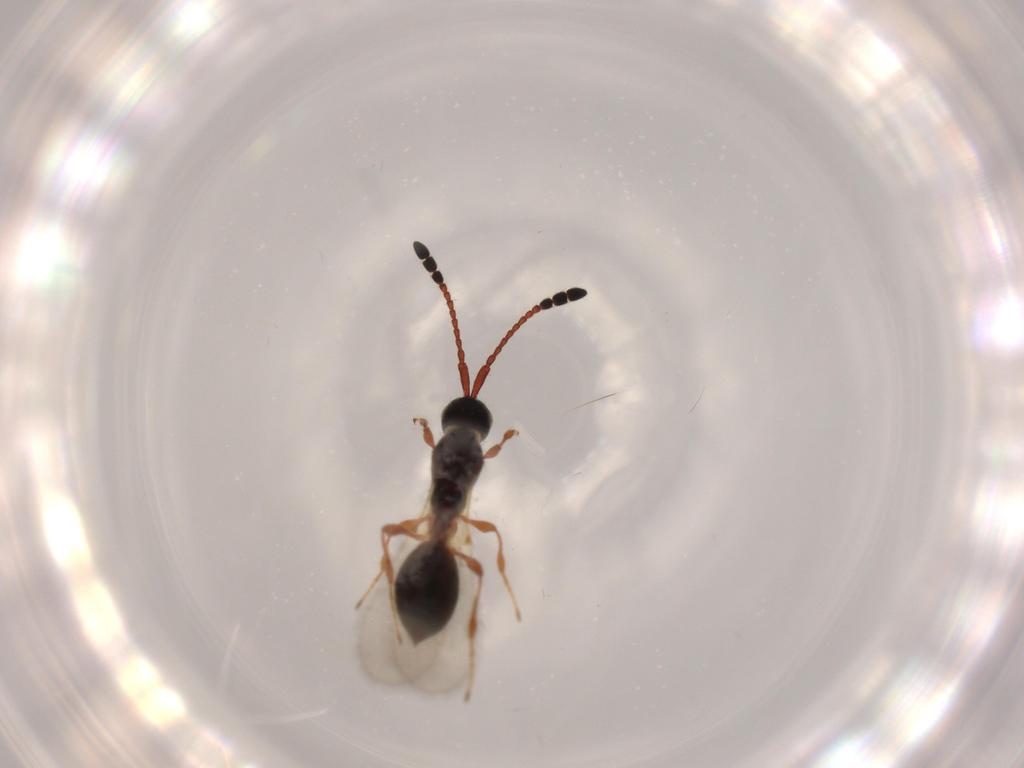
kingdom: Animalia
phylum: Arthropoda
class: Insecta
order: Hymenoptera
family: Diapriidae
